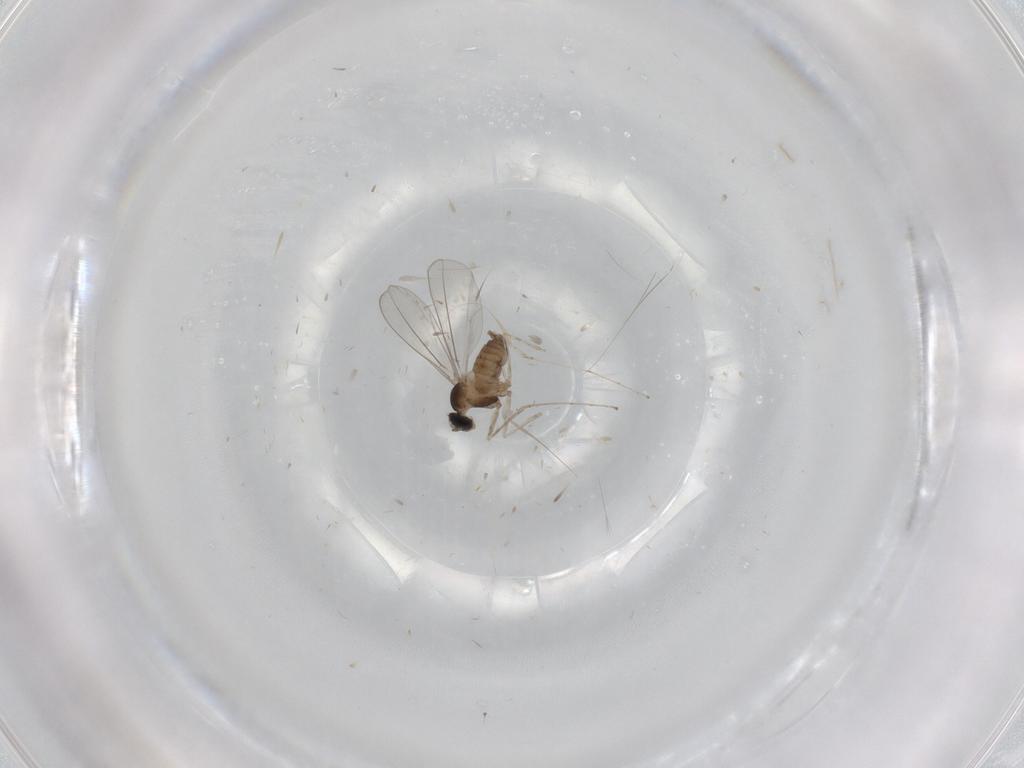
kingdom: Animalia
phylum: Arthropoda
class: Insecta
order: Diptera
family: Cecidomyiidae
